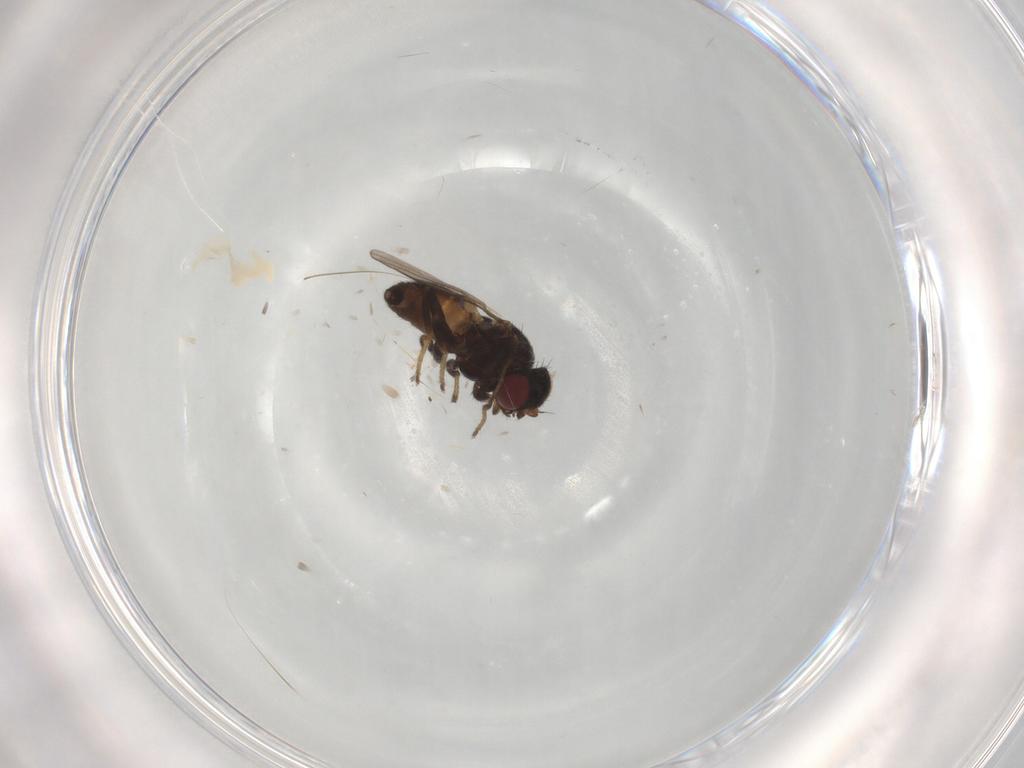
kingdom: Animalia
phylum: Arthropoda
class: Insecta
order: Diptera
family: Chloropidae
